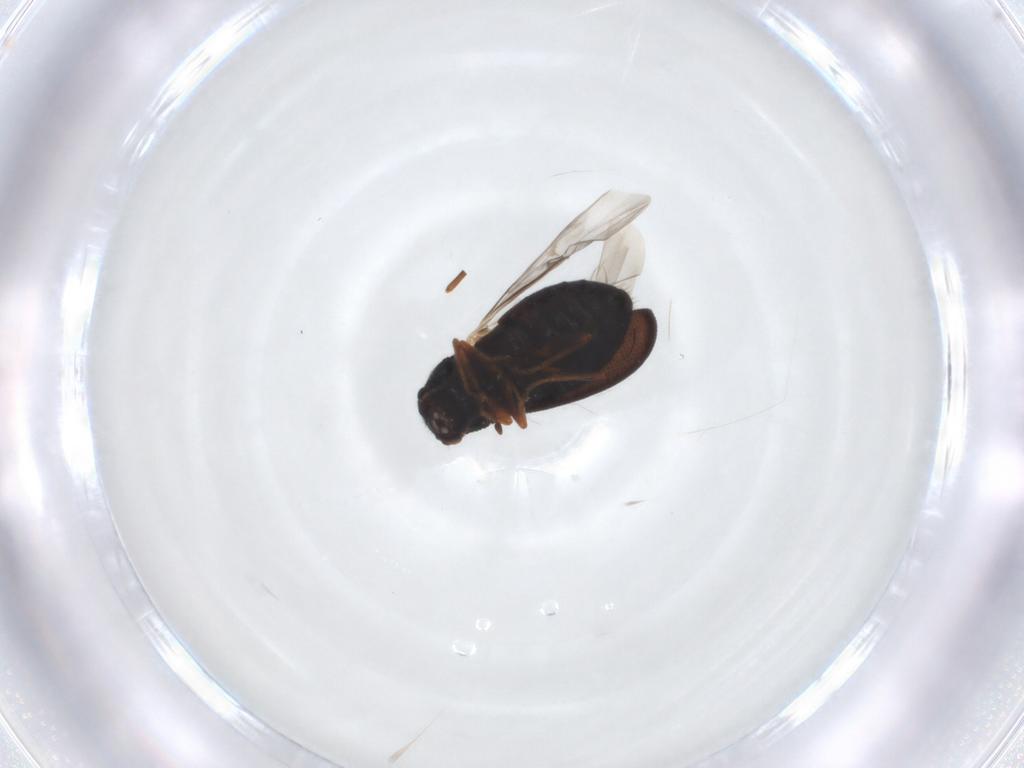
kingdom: Animalia
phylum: Arthropoda
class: Insecta
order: Coleoptera
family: Melyridae
